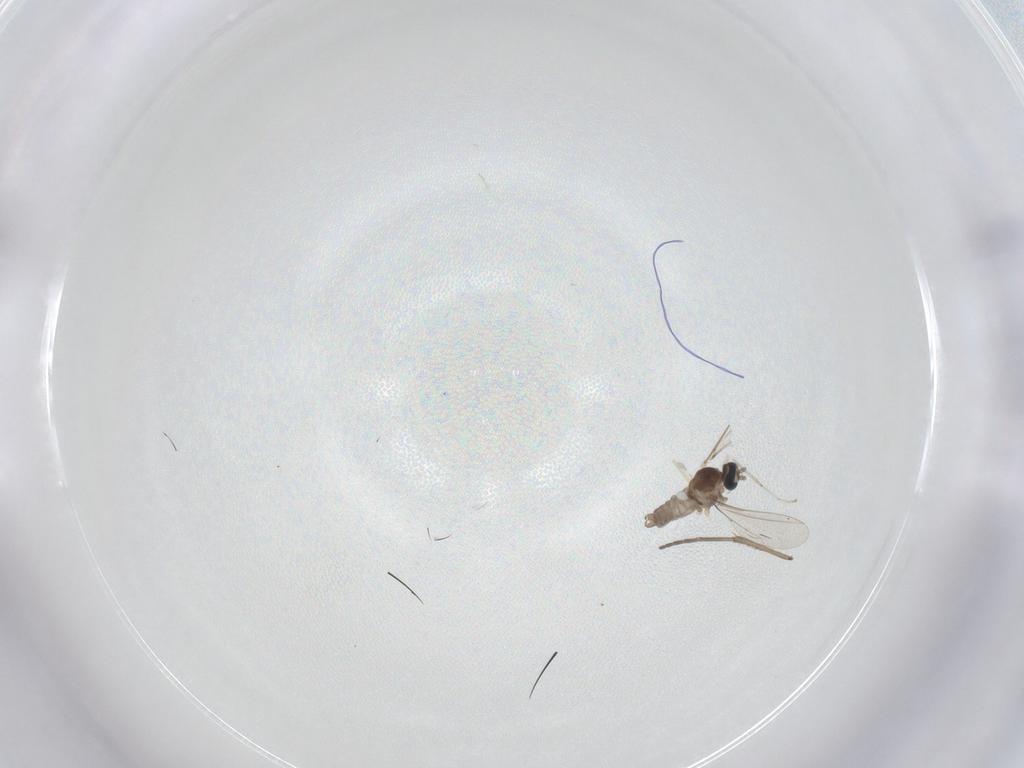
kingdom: Animalia
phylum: Arthropoda
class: Insecta
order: Diptera
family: Cecidomyiidae
